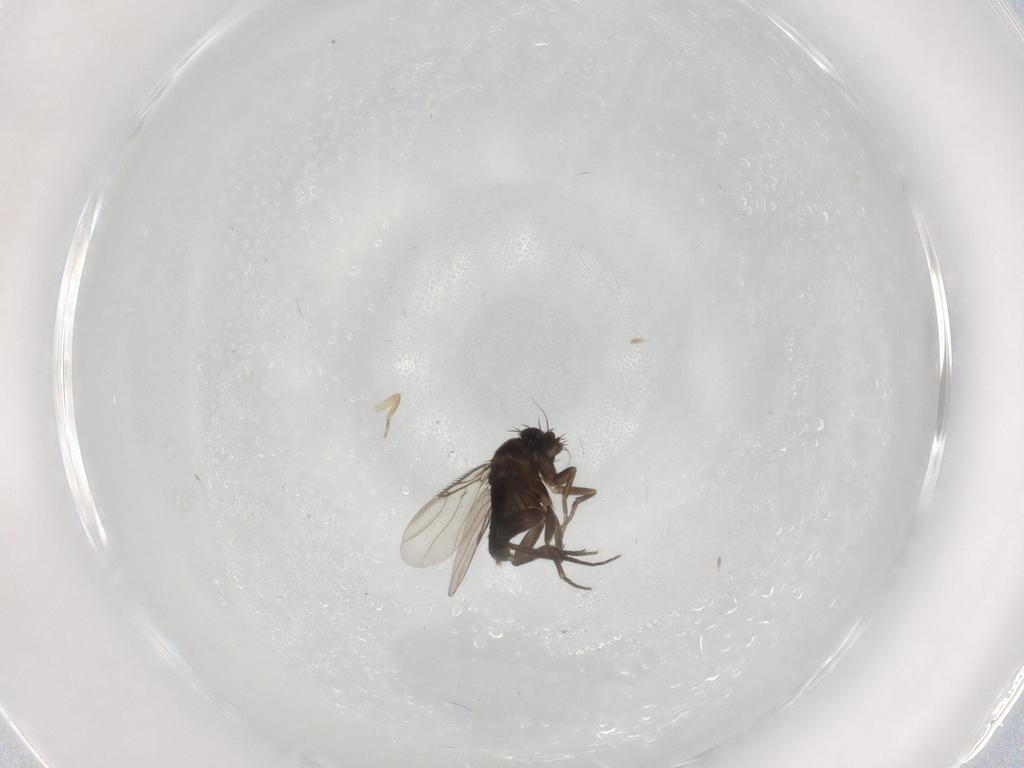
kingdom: Animalia
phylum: Arthropoda
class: Insecta
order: Diptera
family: Phoridae
